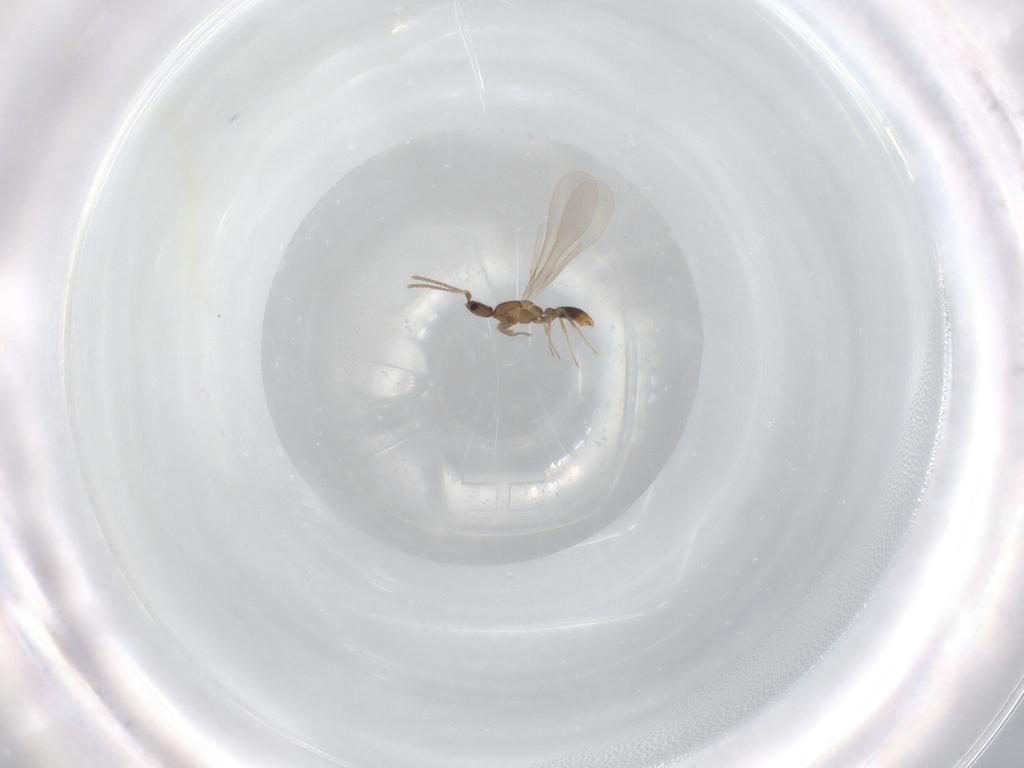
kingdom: Animalia
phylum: Arthropoda
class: Insecta
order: Hymenoptera
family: Formicidae
